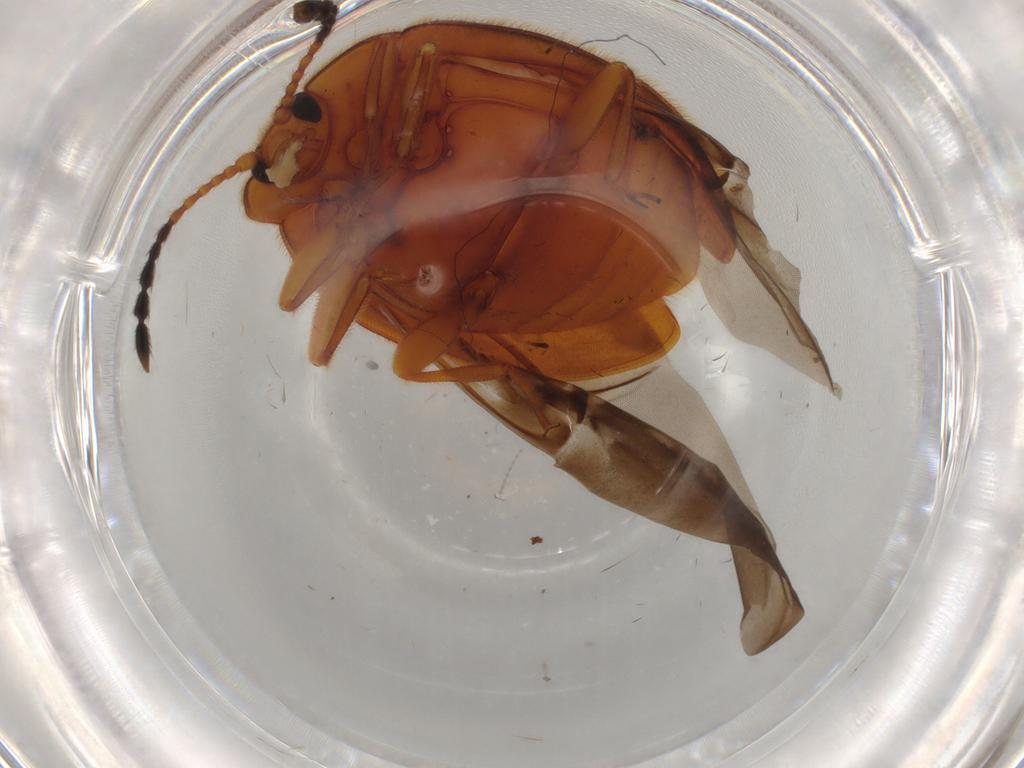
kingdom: Animalia
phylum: Arthropoda
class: Insecta
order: Coleoptera
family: Endomychidae
